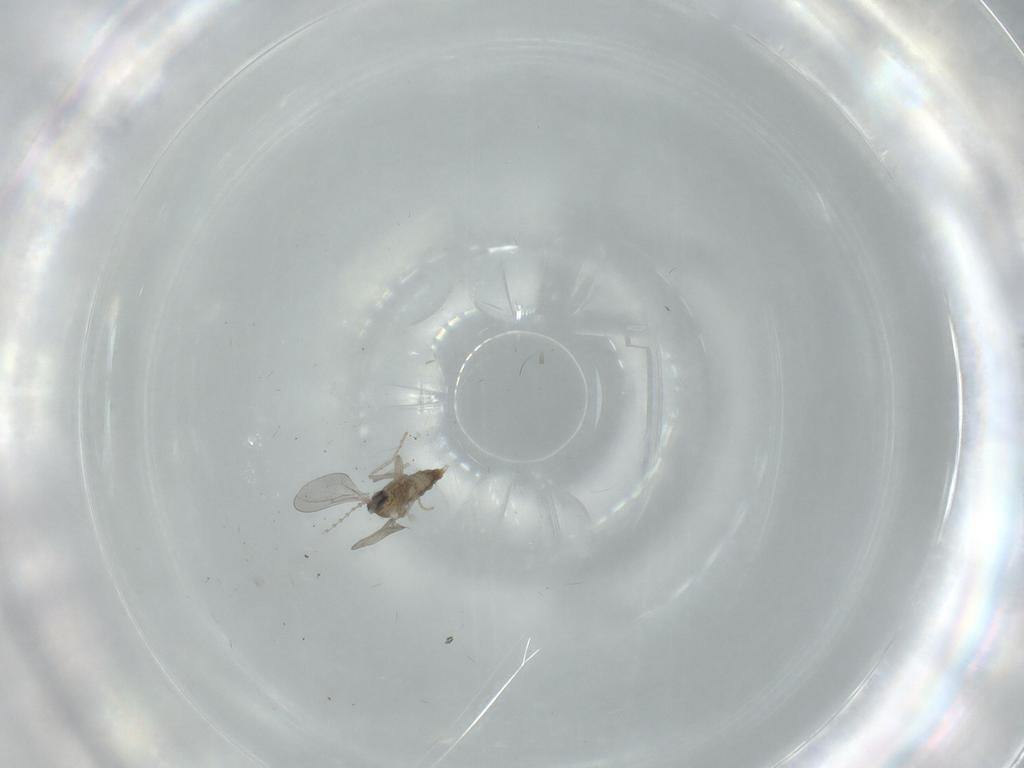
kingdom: Animalia
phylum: Arthropoda
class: Insecta
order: Diptera
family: Cecidomyiidae
